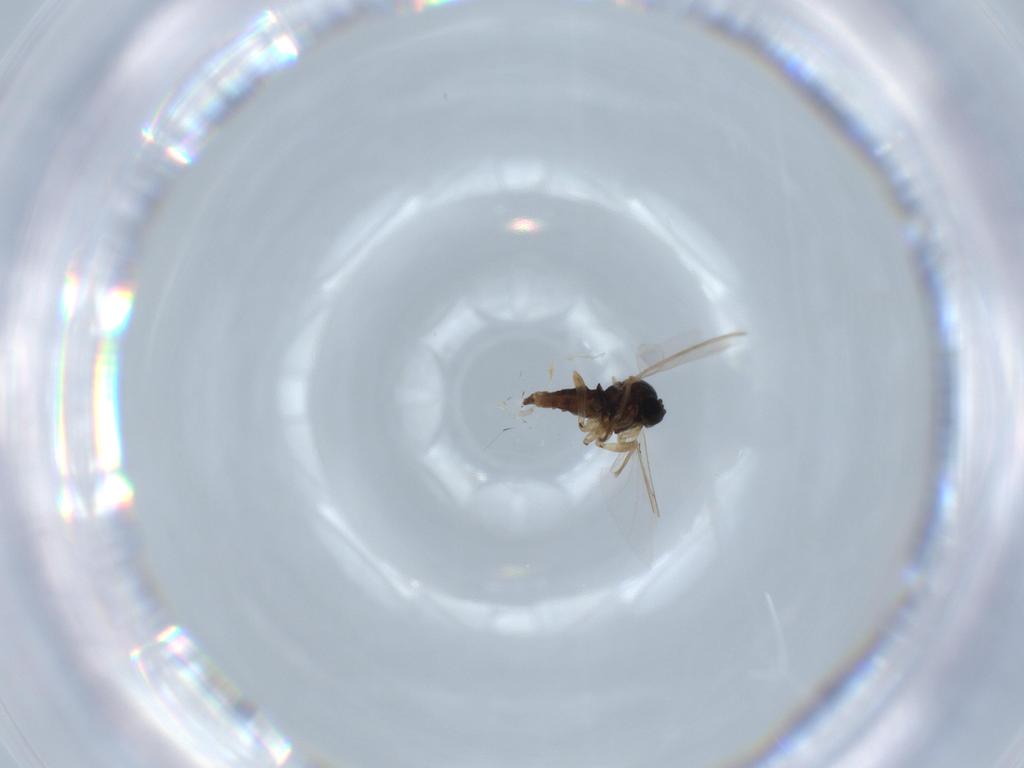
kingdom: Animalia
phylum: Arthropoda
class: Insecta
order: Diptera
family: Sciaridae
